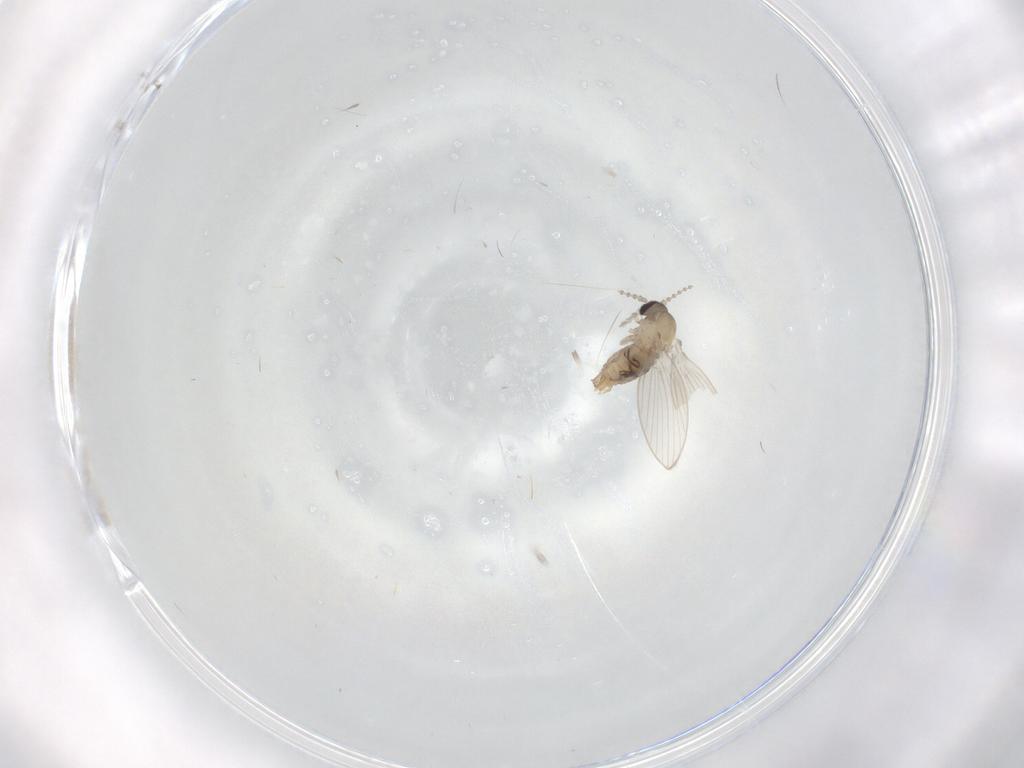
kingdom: Animalia
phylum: Arthropoda
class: Insecta
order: Diptera
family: Psychodidae
